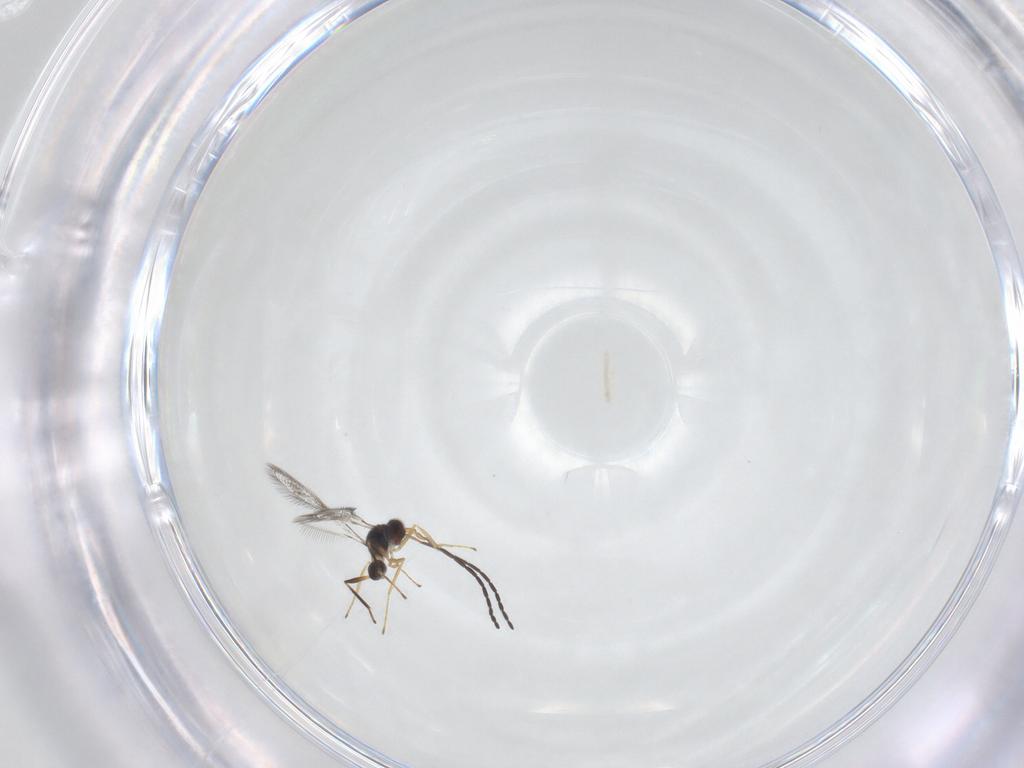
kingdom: Animalia
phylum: Arthropoda
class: Insecta
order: Hymenoptera
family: Mymaridae
